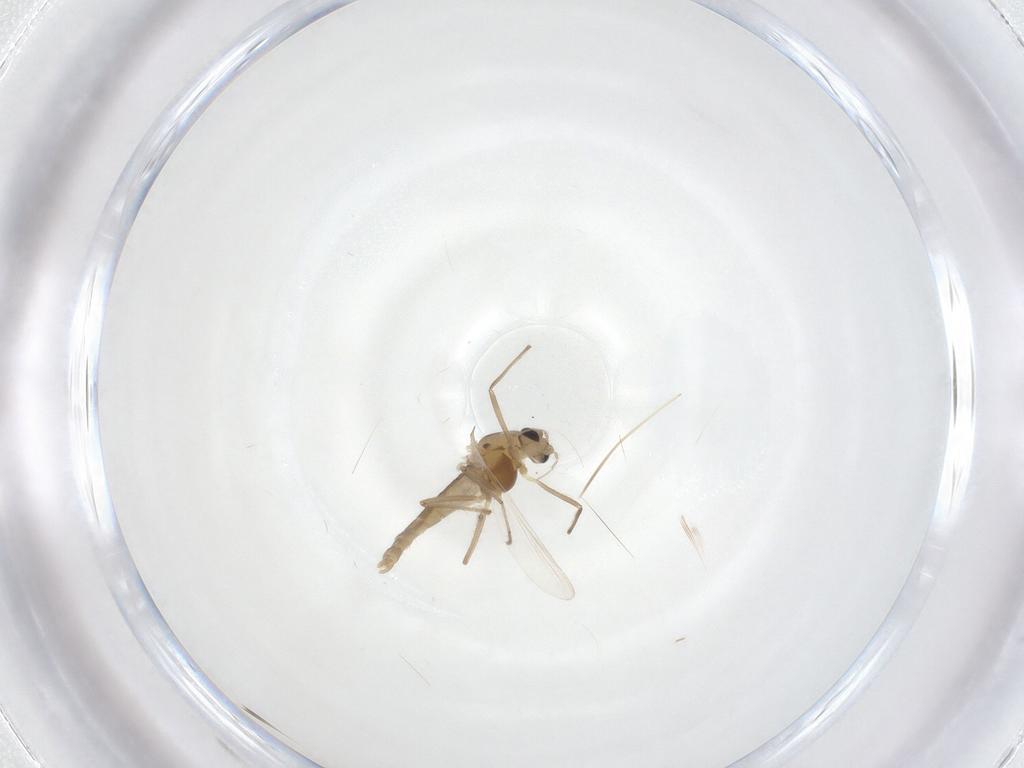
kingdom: Animalia
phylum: Arthropoda
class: Insecta
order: Diptera
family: Chironomidae
